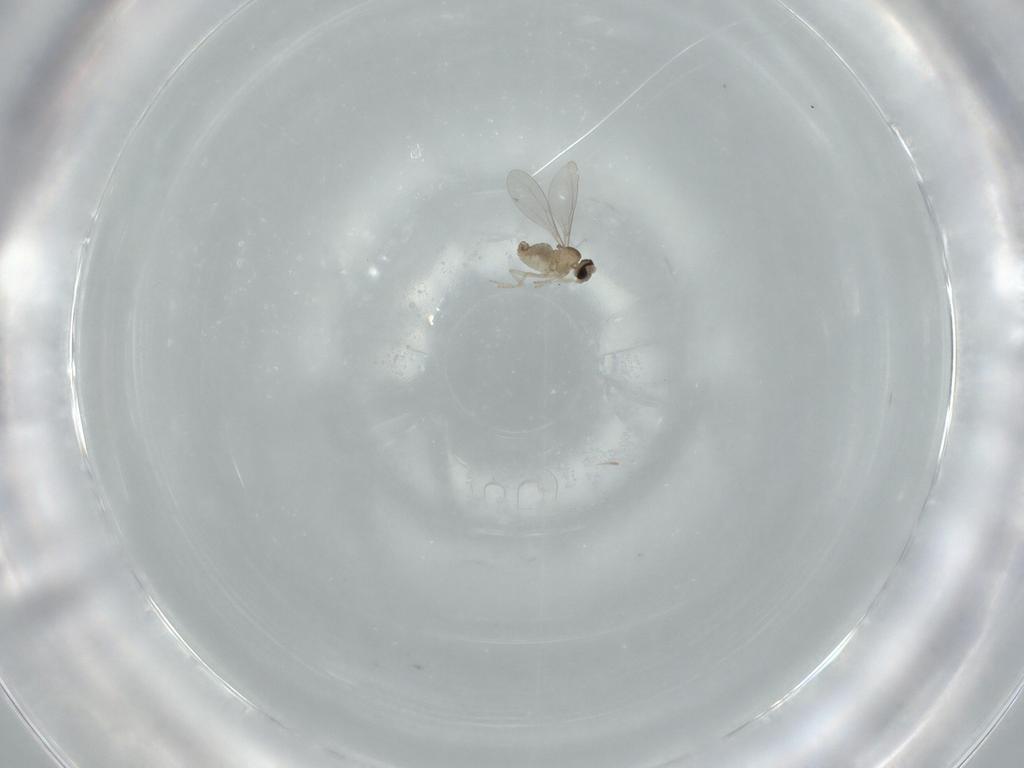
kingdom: Animalia
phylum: Arthropoda
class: Insecta
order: Diptera
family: Cecidomyiidae
